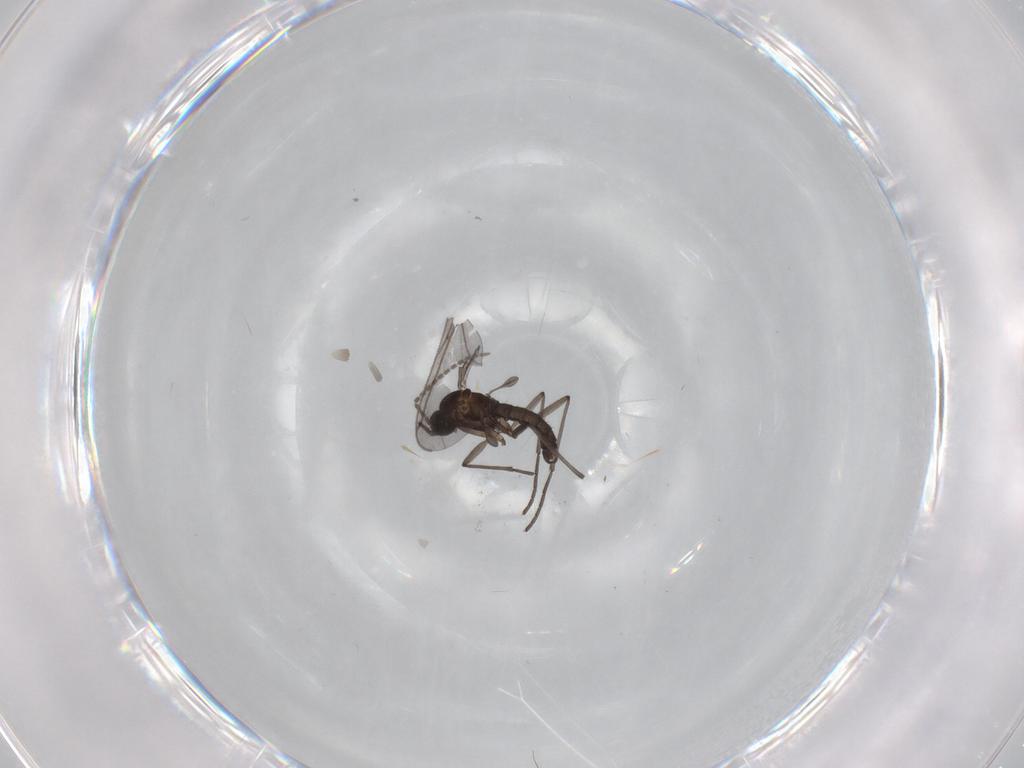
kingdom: Animalia
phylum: Arthropoda
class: Insecta
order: Diptera
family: Sciaridae
